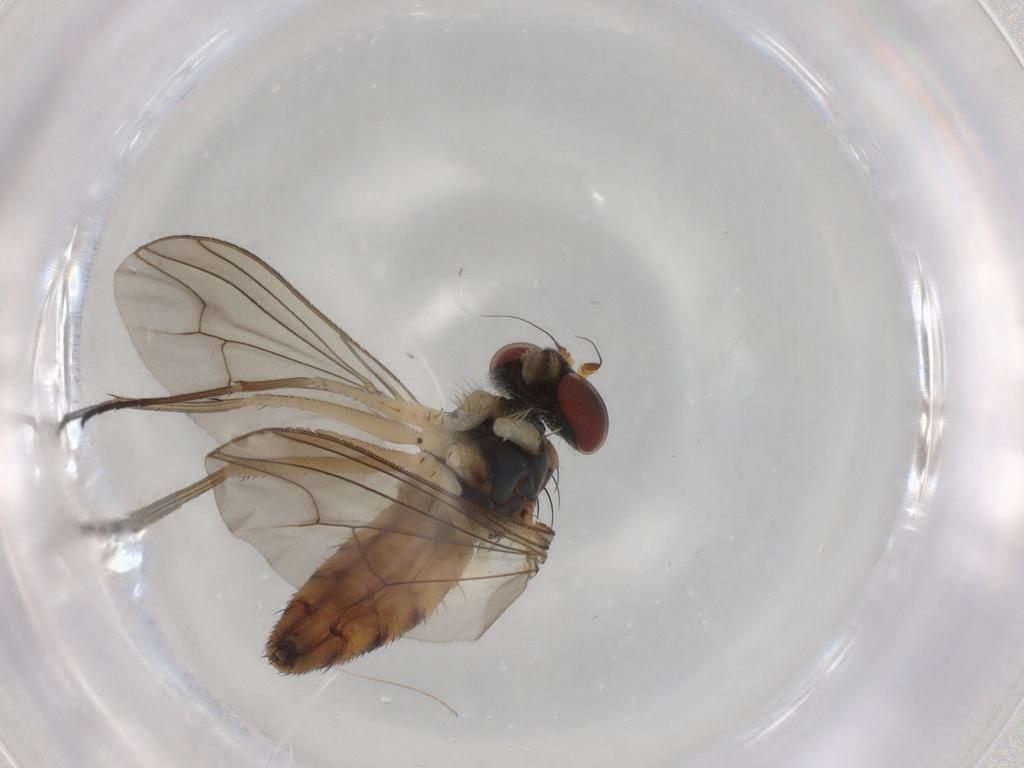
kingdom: Animalia
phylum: Arthropoda
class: Insecta
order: Diptera
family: Dolichopodidae
